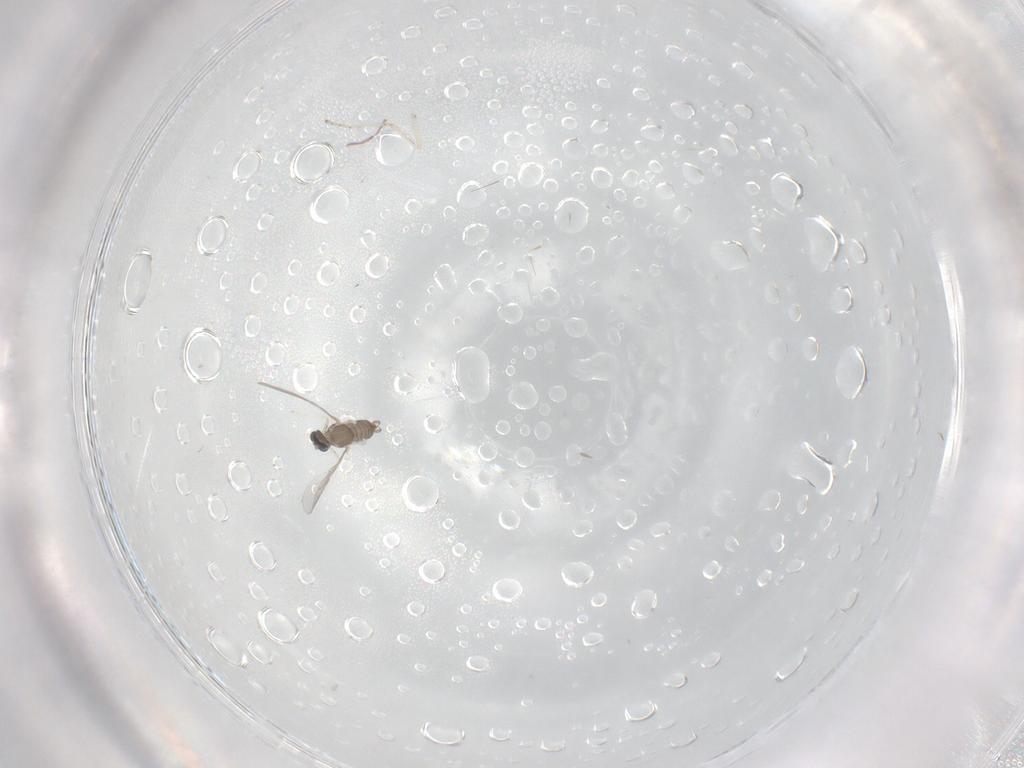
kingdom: Animalia
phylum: Arthropoda
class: Insecta
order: Diptera
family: Cecidomyiidae
